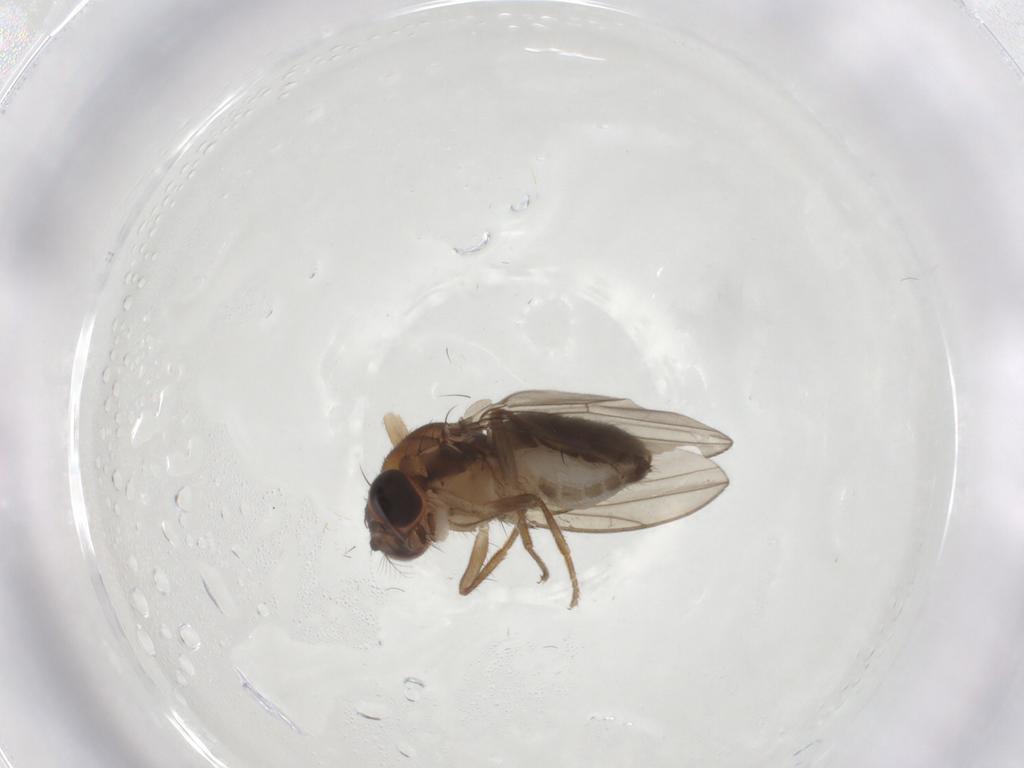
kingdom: Animalia
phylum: Arthropoda
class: Insecta
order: Diptera
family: Drosophilidae
